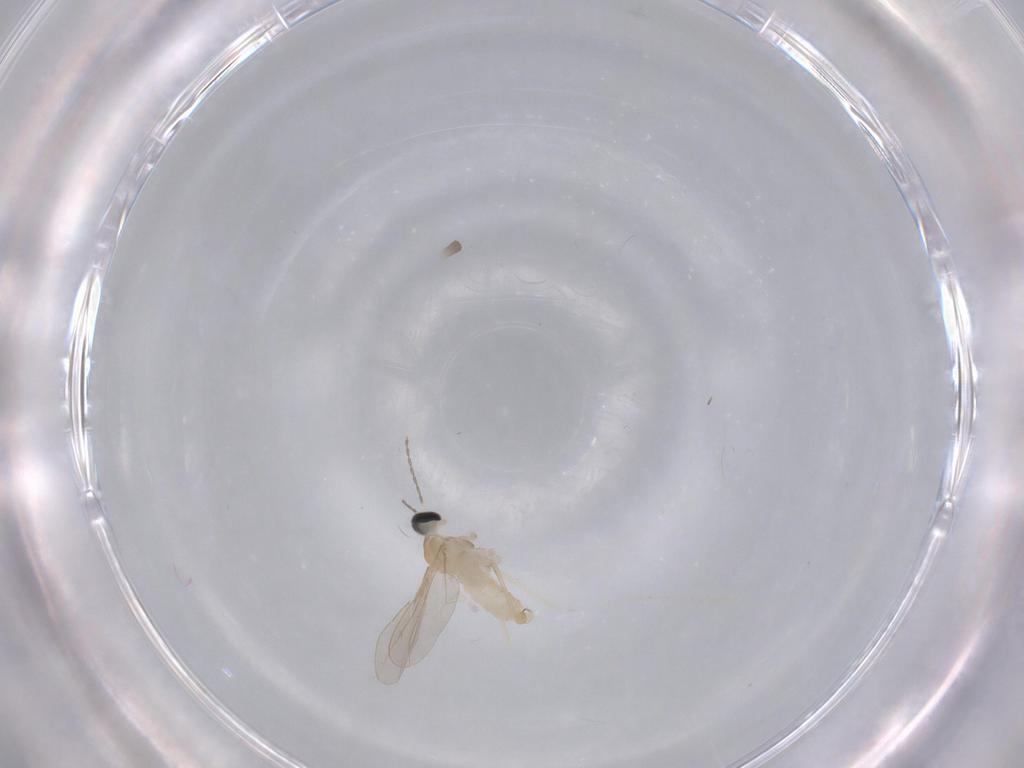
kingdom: Animalia
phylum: Arthropoda
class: Insecta
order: Diptera
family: Cecidomyiidae
